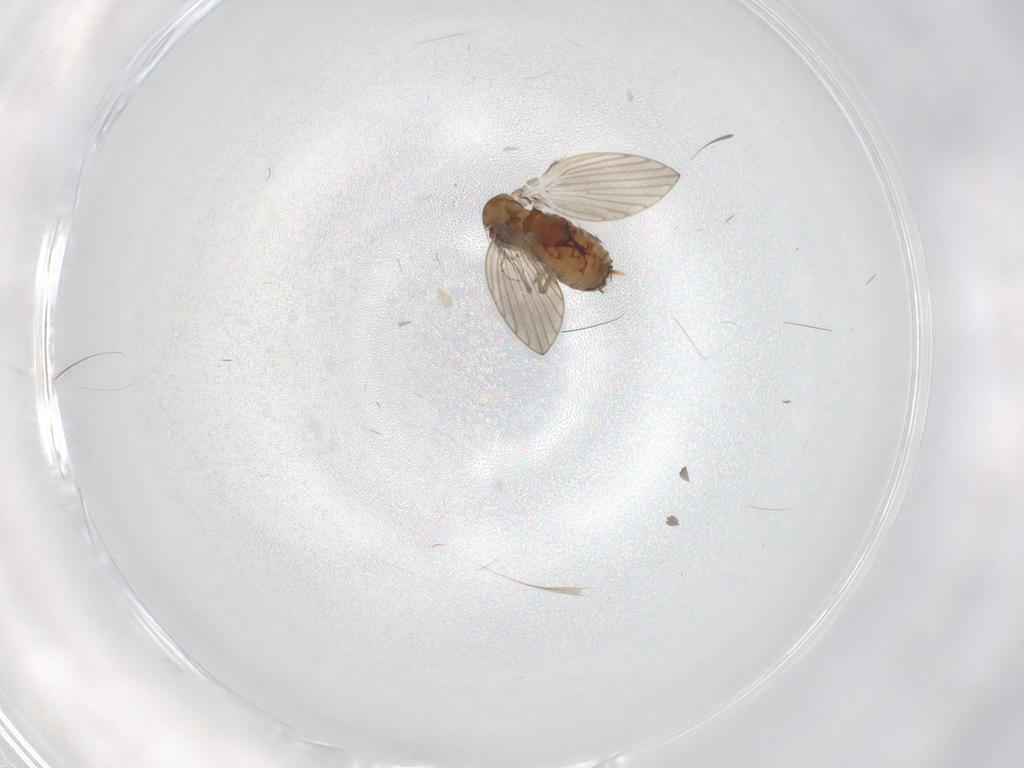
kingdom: Animalia
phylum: Arthropoda
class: Insecta
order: Diptera
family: Psychodidae
